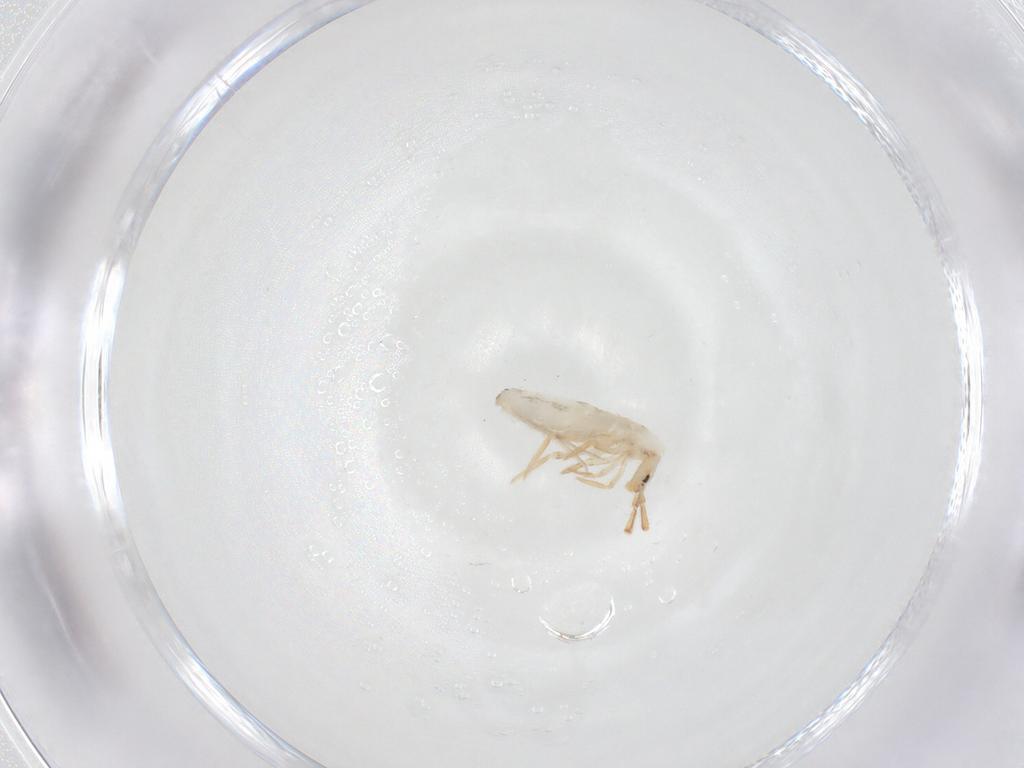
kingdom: Animalia
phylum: Arthropoda
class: Collembola
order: Entomobryomorpha
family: Entomobryidae
